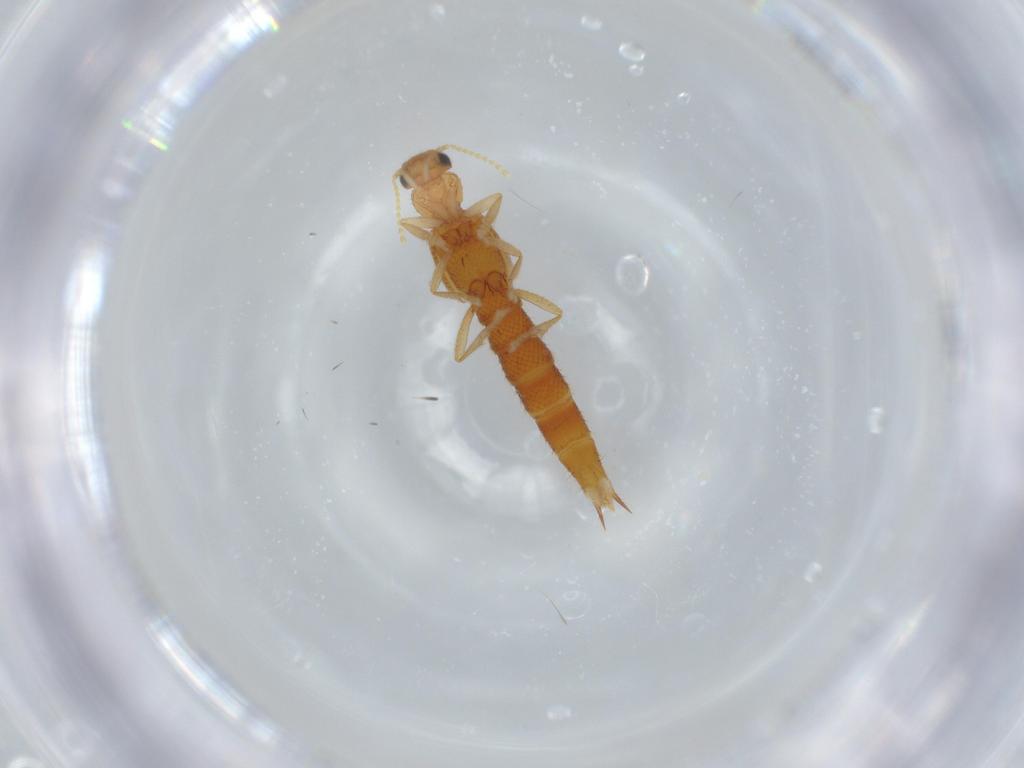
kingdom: Animalia
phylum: Arthropoda
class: Insecta
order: Coleoptera
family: Staphylinidae
